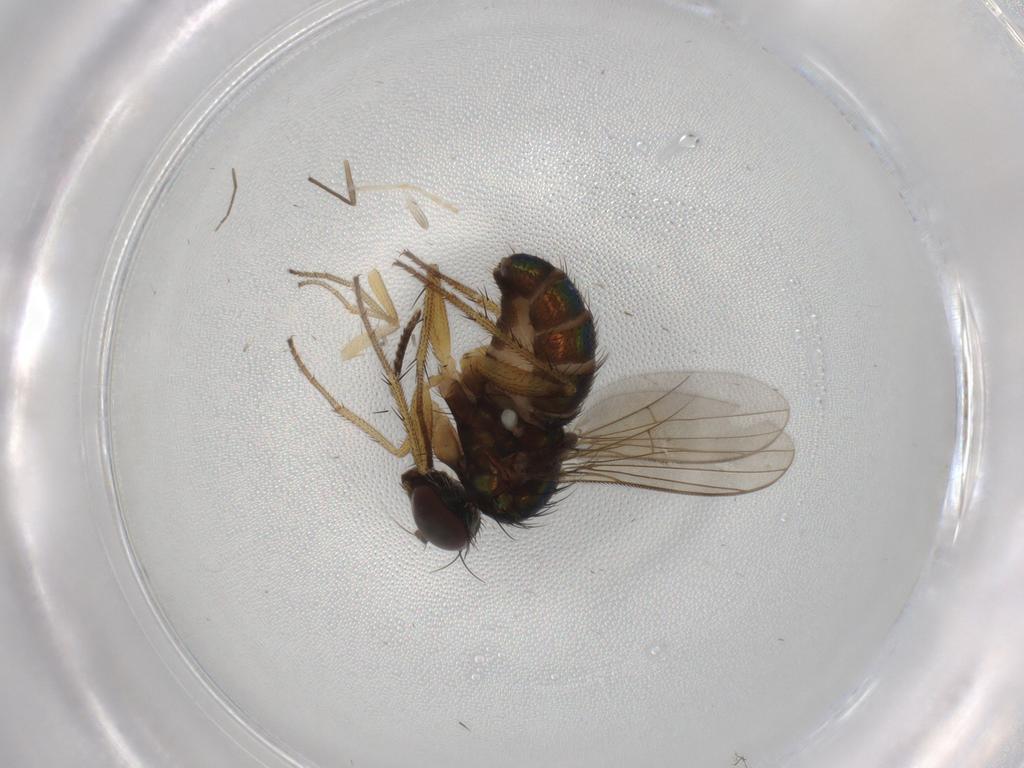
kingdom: Animalia
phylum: Arthropoda
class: Insecta
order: Diptera
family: Dolichopodidae
